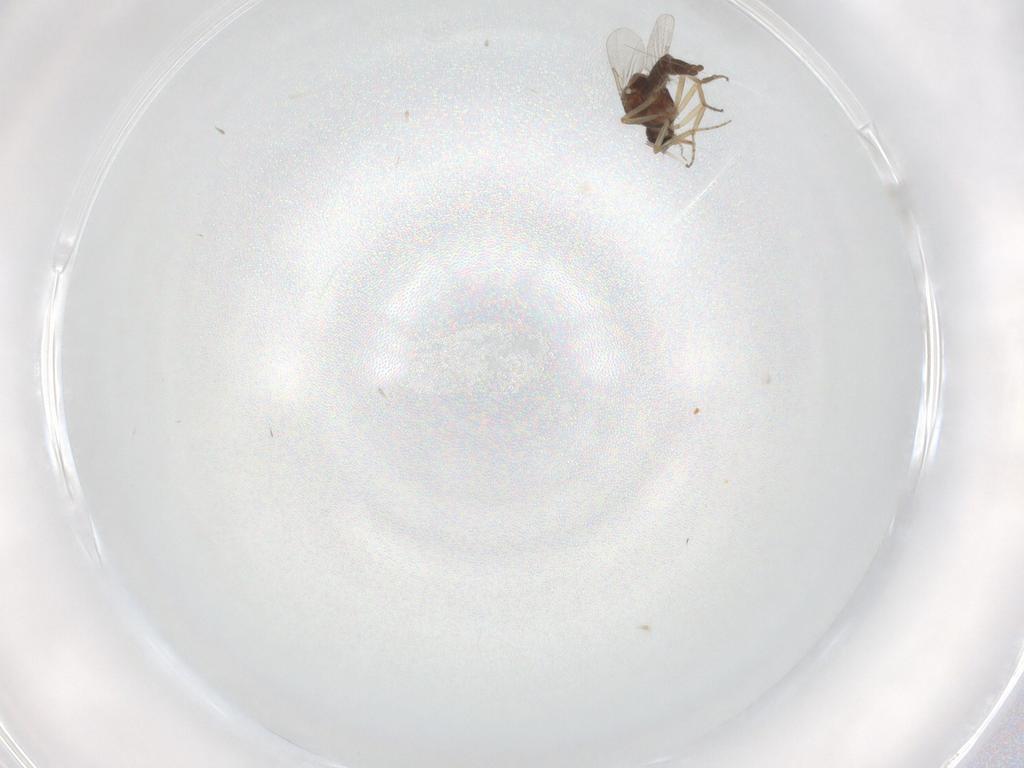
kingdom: Animalia
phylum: Arthropoda
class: Insecta
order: Diptera
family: Ceratopogonidae
